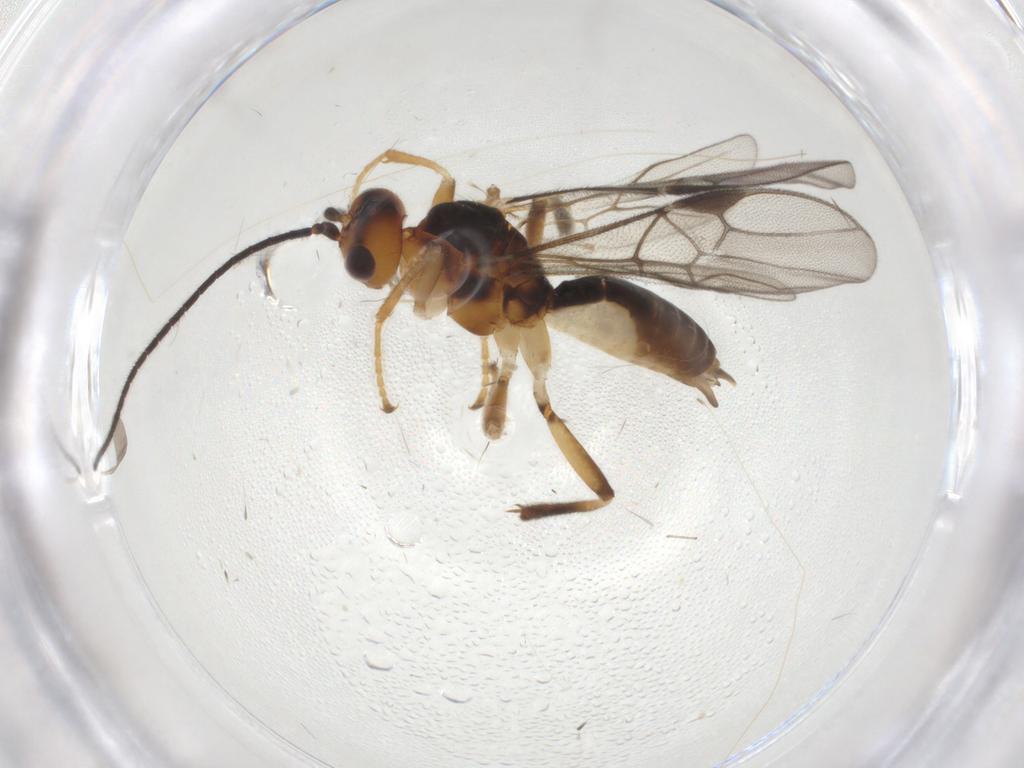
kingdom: Animalia
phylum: Arthropoda
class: Insecta
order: Hymenoptera
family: Braconidae
